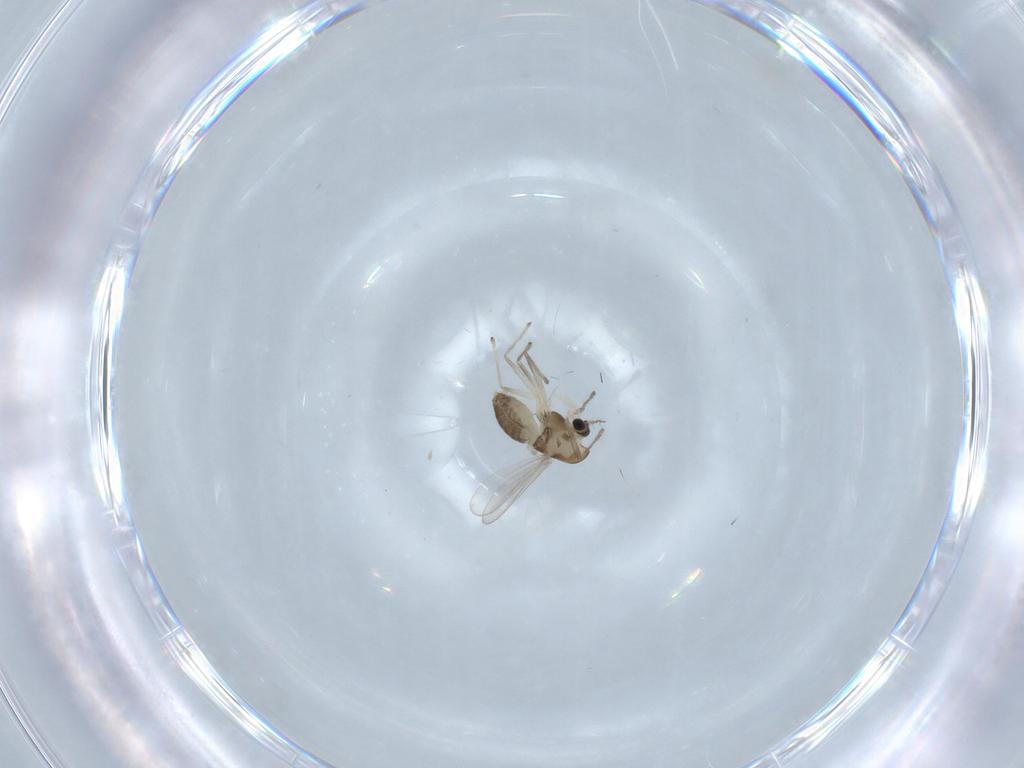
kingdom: Animalia
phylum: Arthropoda
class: Insecta
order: Diptera
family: Chironomidae
